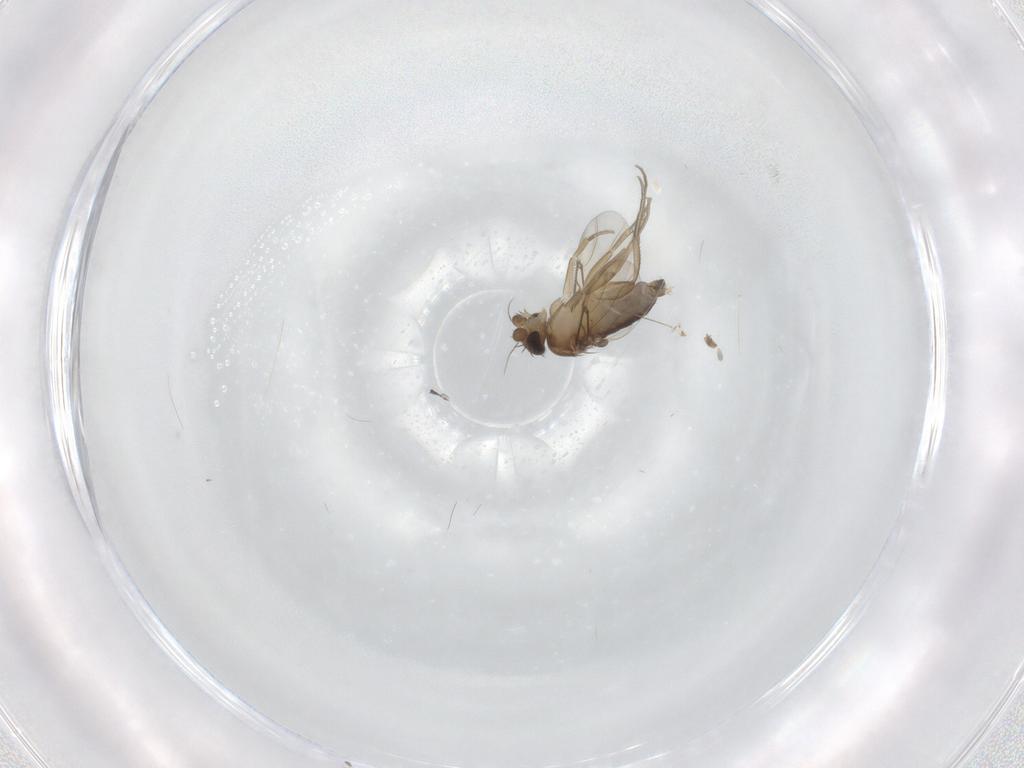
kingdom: Animalia
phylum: Arthropoda
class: Insecta
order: Diptera
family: Phoridae
